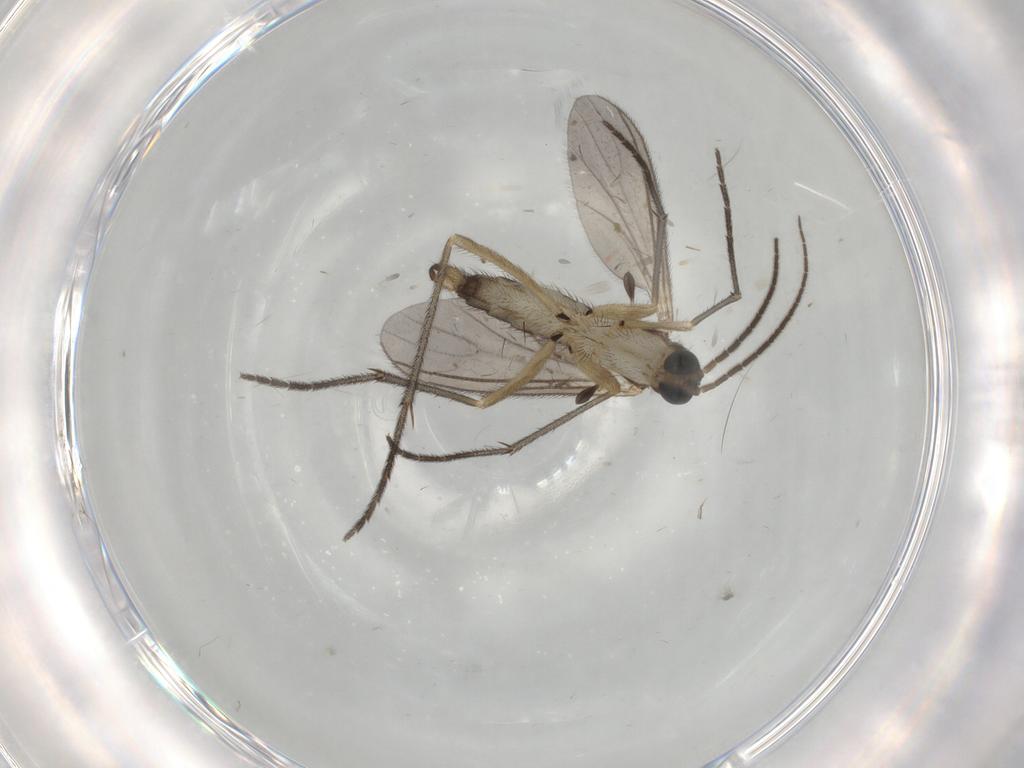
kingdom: Animalia
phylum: Arthropoda
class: Insecta
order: Diptera
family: Sciaridae
